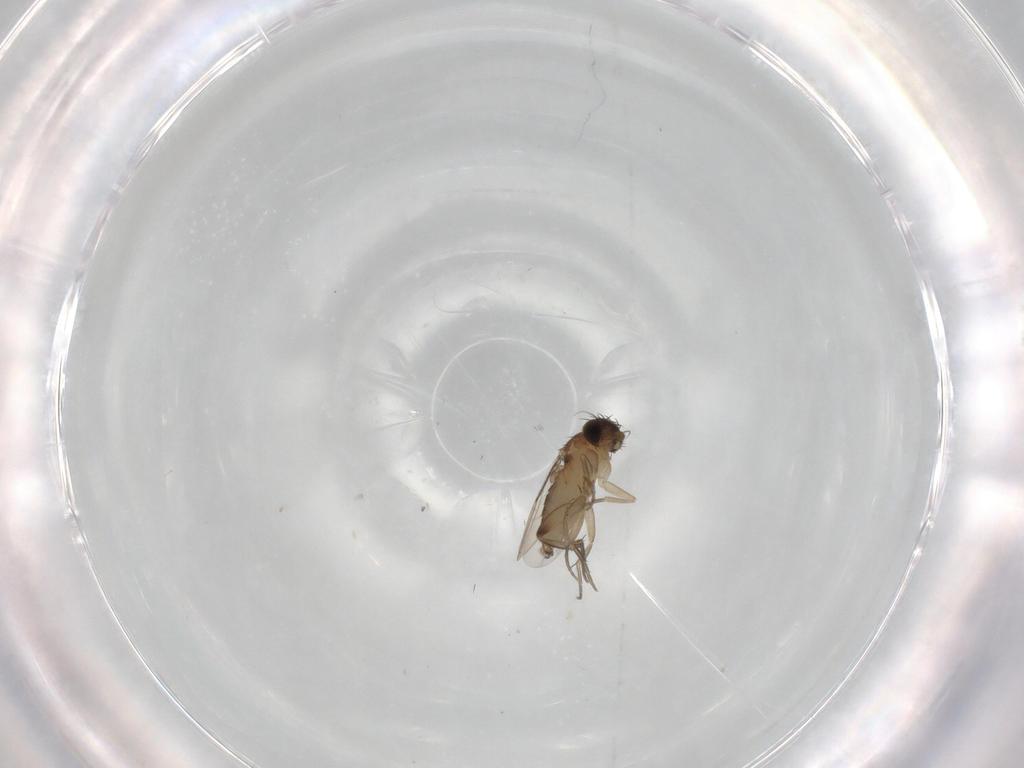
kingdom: Animalia
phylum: Arthropoda
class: Insecta
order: Diptera
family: Phoridae
